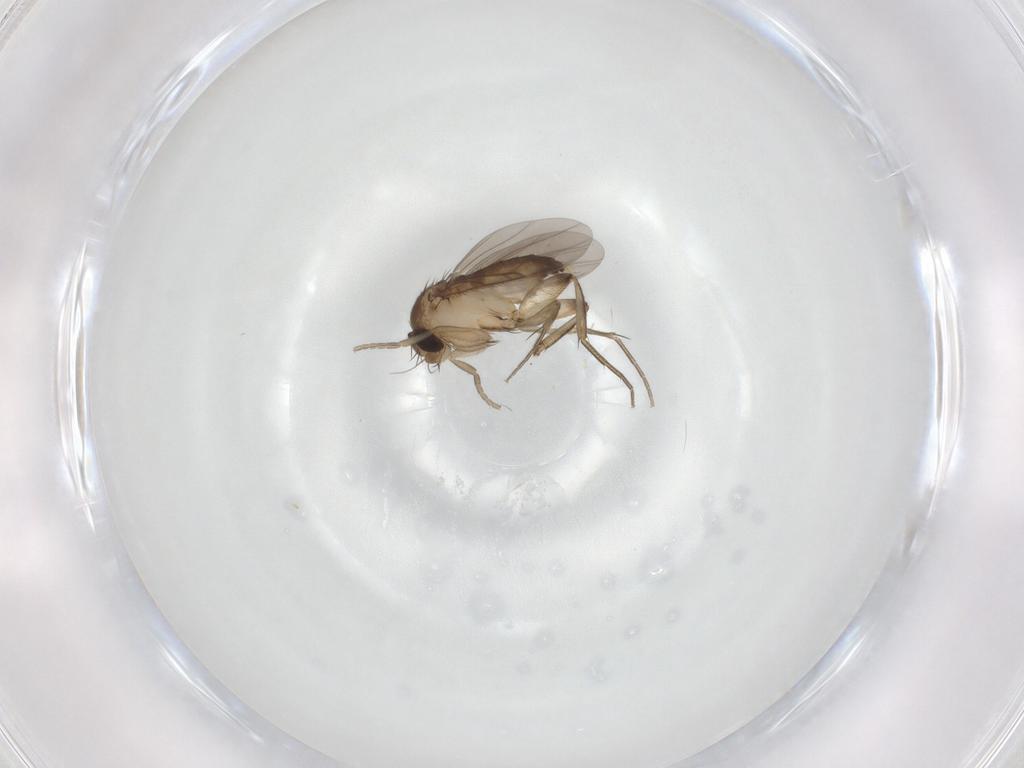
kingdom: Animalia
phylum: Arthropoda
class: Insecta
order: Diptera
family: Phoridae
